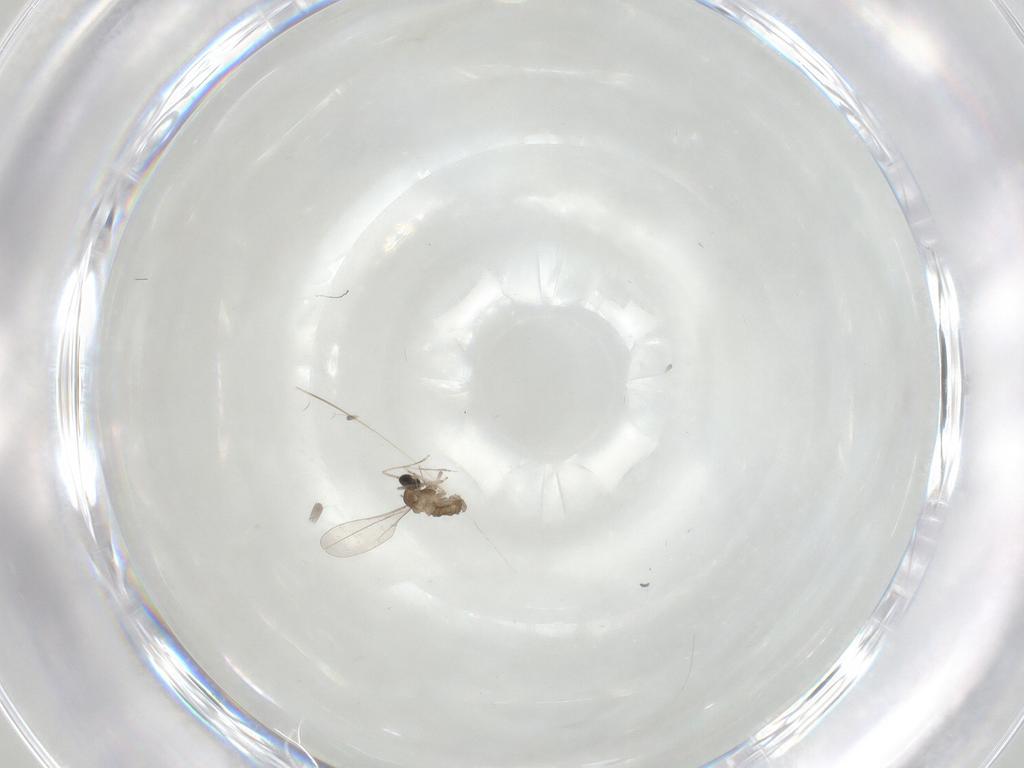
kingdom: Animalia
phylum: Arthropoda
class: Insecta
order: Diptera
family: Cecidomyiidae
